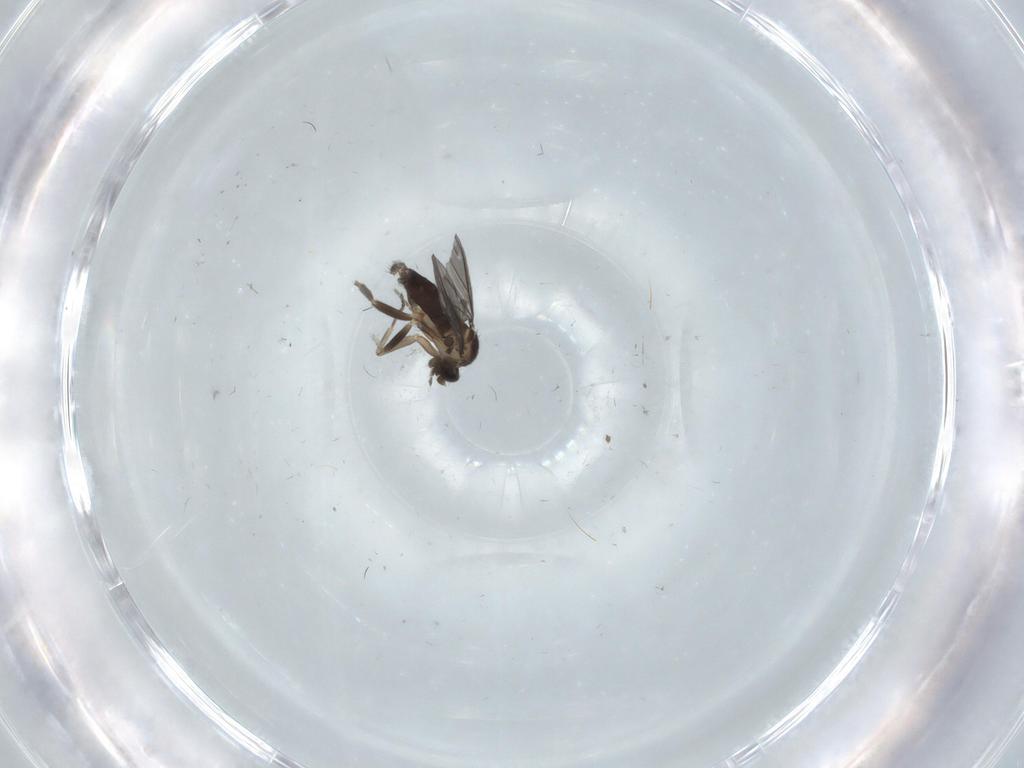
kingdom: Animalia
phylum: Arthropoda
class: Insecta
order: Diptera
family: Phoridae
